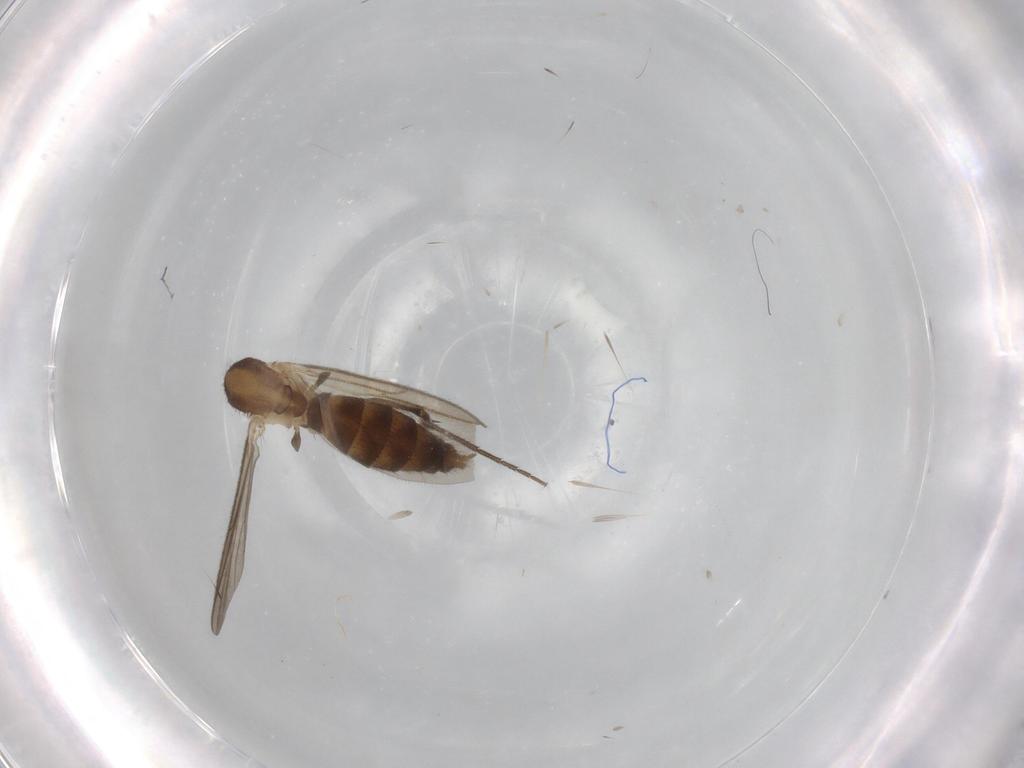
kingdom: Animalia
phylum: Arthropoda
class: Insecta
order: Diptera
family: Mycetophilidae
